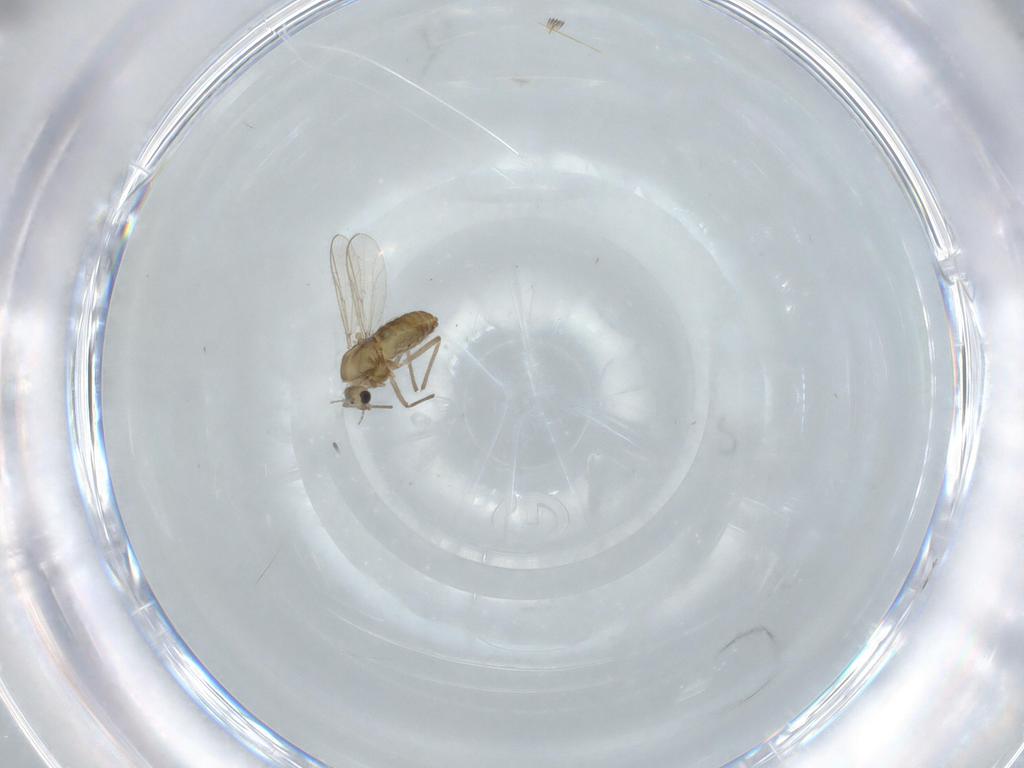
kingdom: Animalia
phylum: Arthropoda
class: Insecta
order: Diptera
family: Chironomidae
